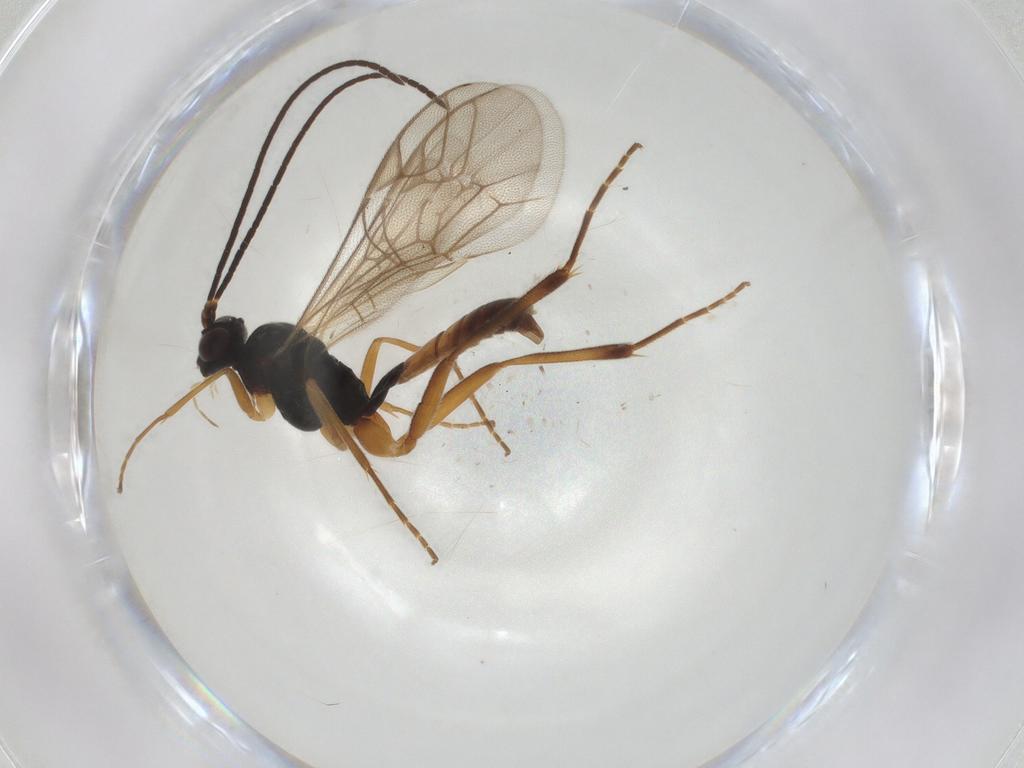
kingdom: Animalia
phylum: Arthropoda
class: Insecta
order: Hymenoptera
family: Ichneumonidae
